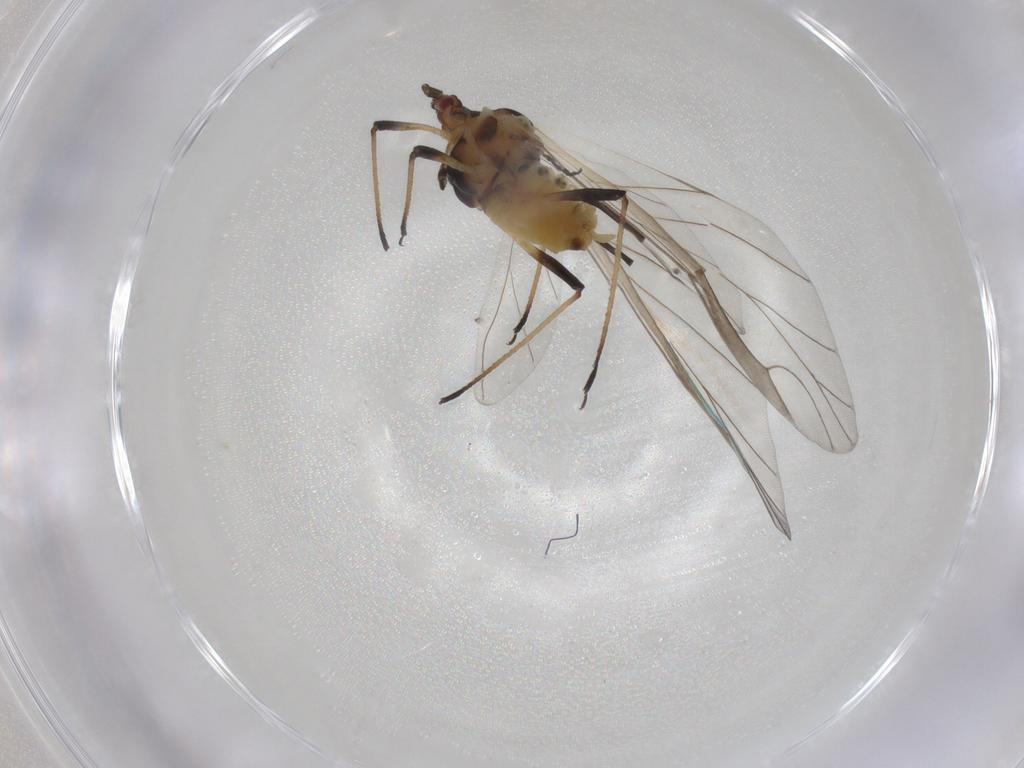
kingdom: Animalia
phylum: Arthropoda
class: Insecta
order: Hemiptera
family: Aphididae
